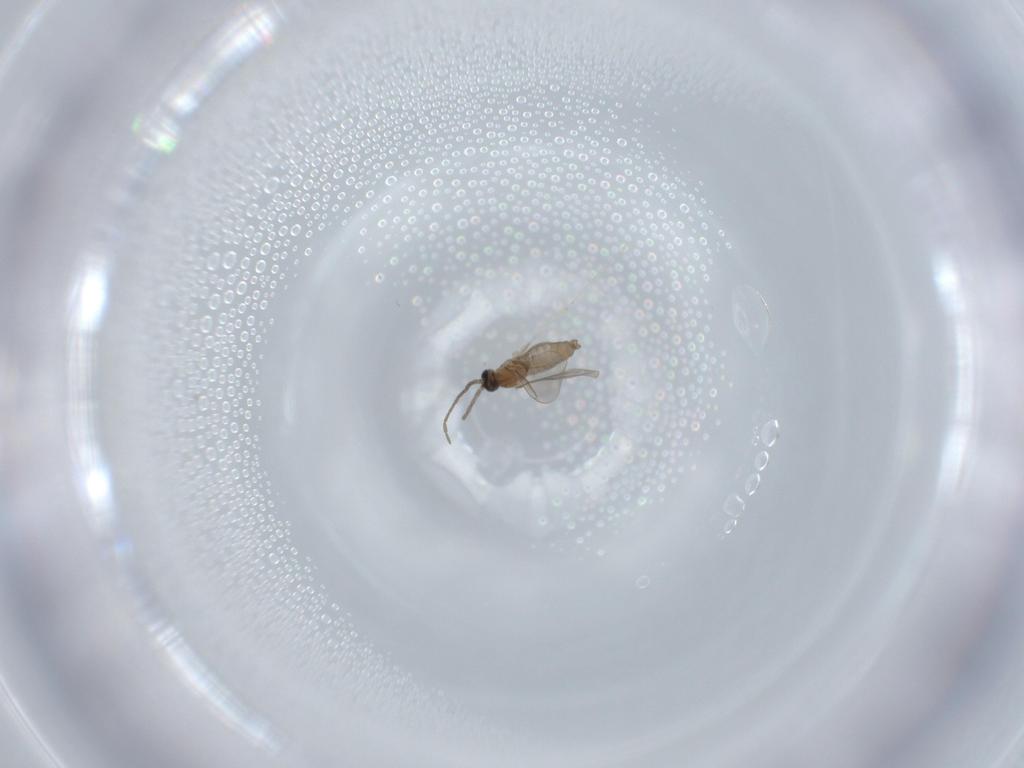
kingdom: Animalia
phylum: Arthropoda
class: Insecta
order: Diptera
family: Cecidomyiidae
